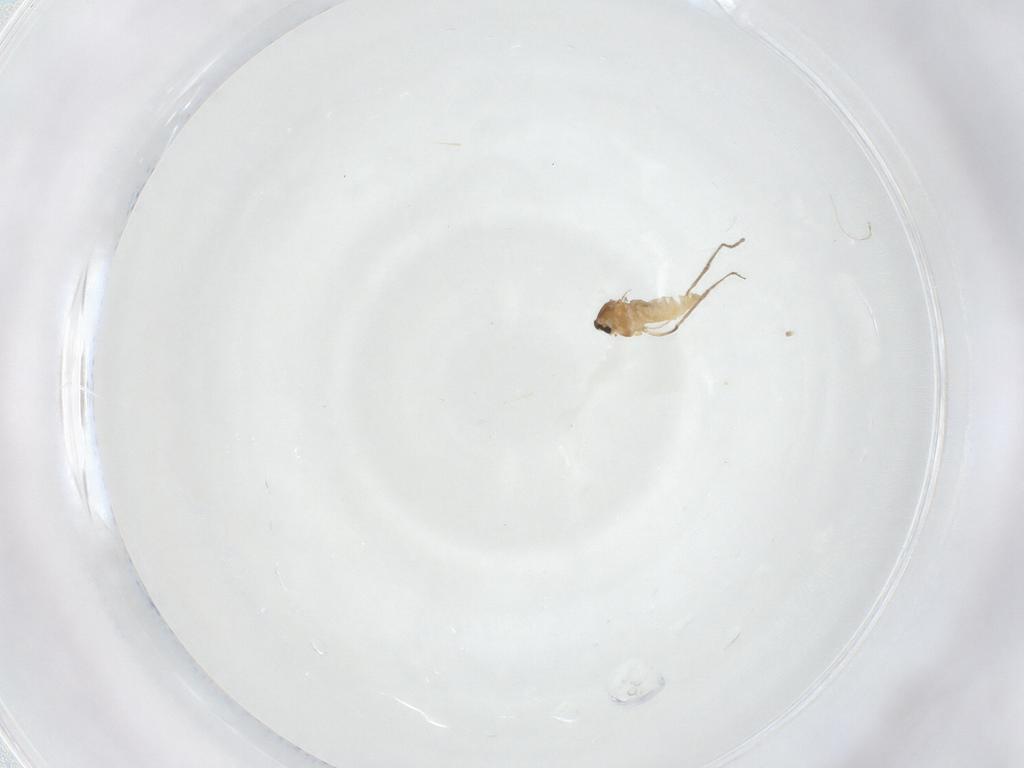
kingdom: Animalia
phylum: Arthropoda
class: Insecta
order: Diptera
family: Cecidomyiidae
